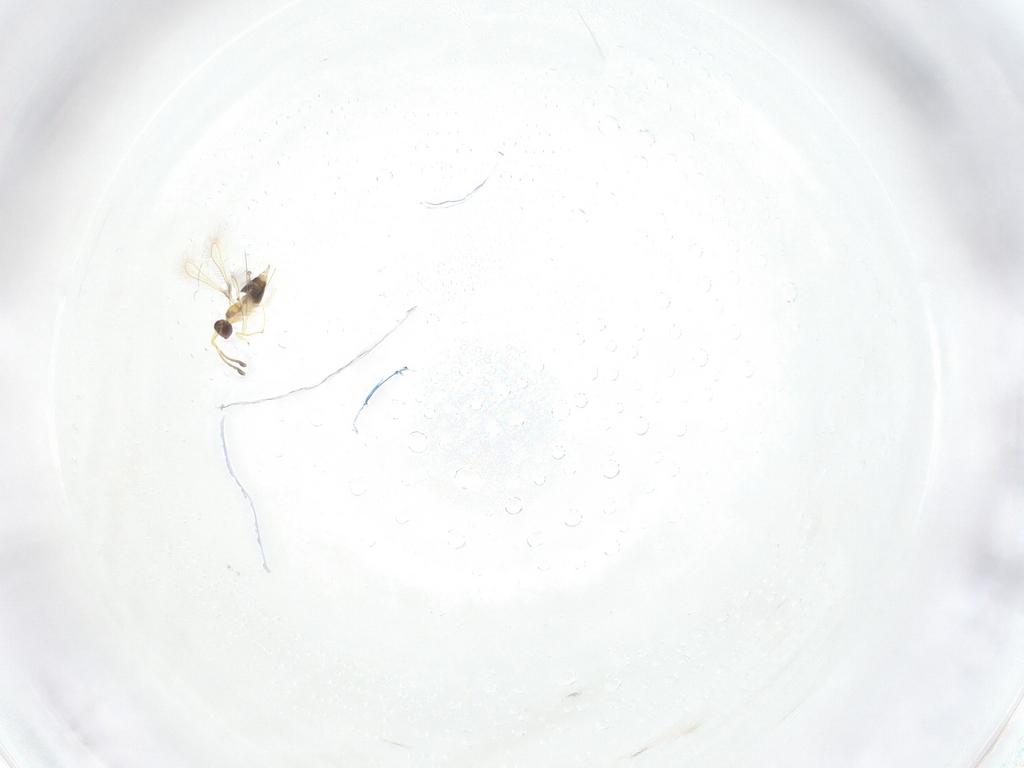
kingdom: Animalia
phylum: Arthropoda
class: Insecta
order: Hymenoptera
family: Mymaridae
